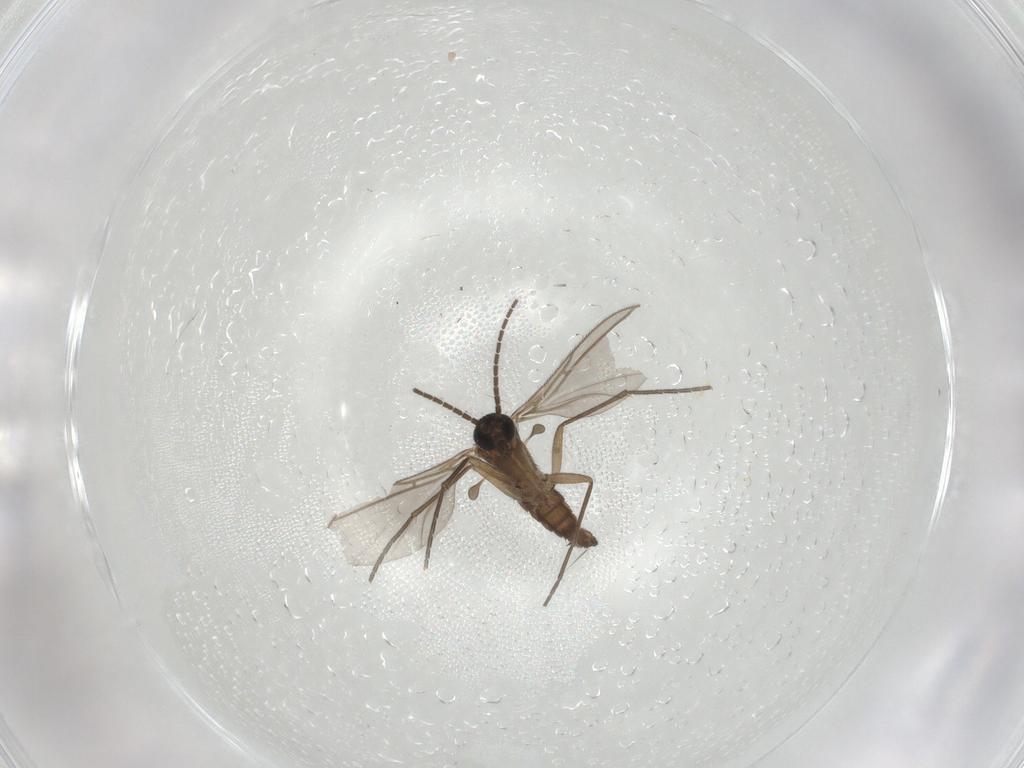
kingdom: Animalia
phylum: Arthropoda
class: Insecta
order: Diptera
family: Sciaridae
